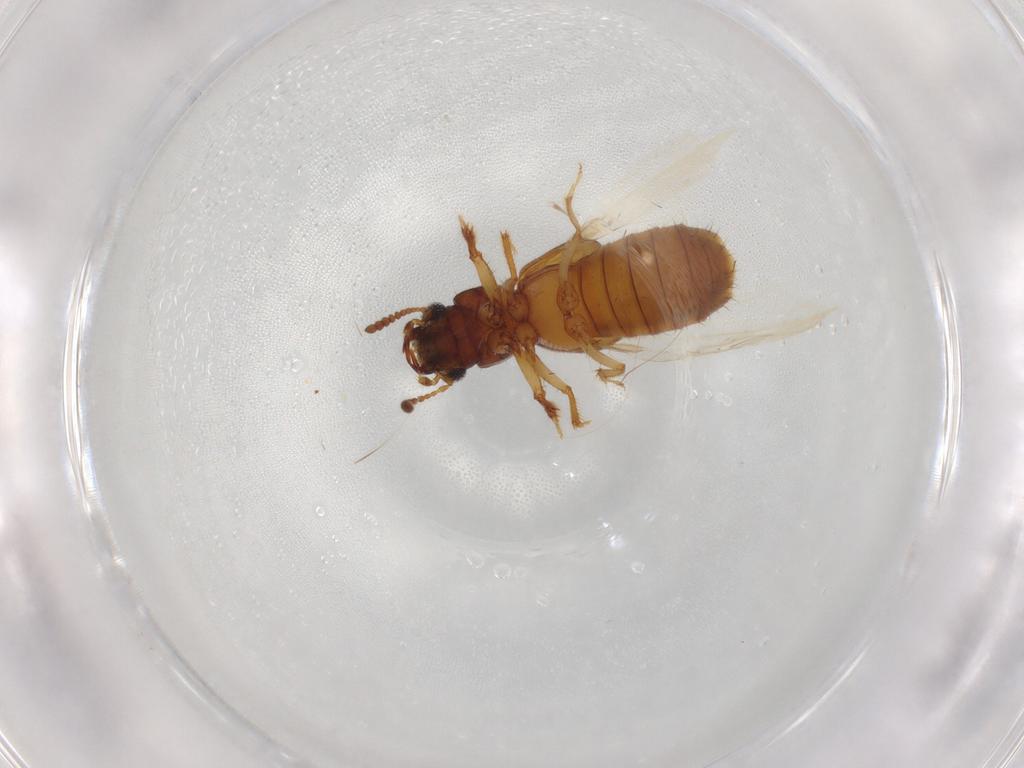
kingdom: Animalia
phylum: Arthropoda
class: Insecta
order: Coleoptera
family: Staphylinidae
